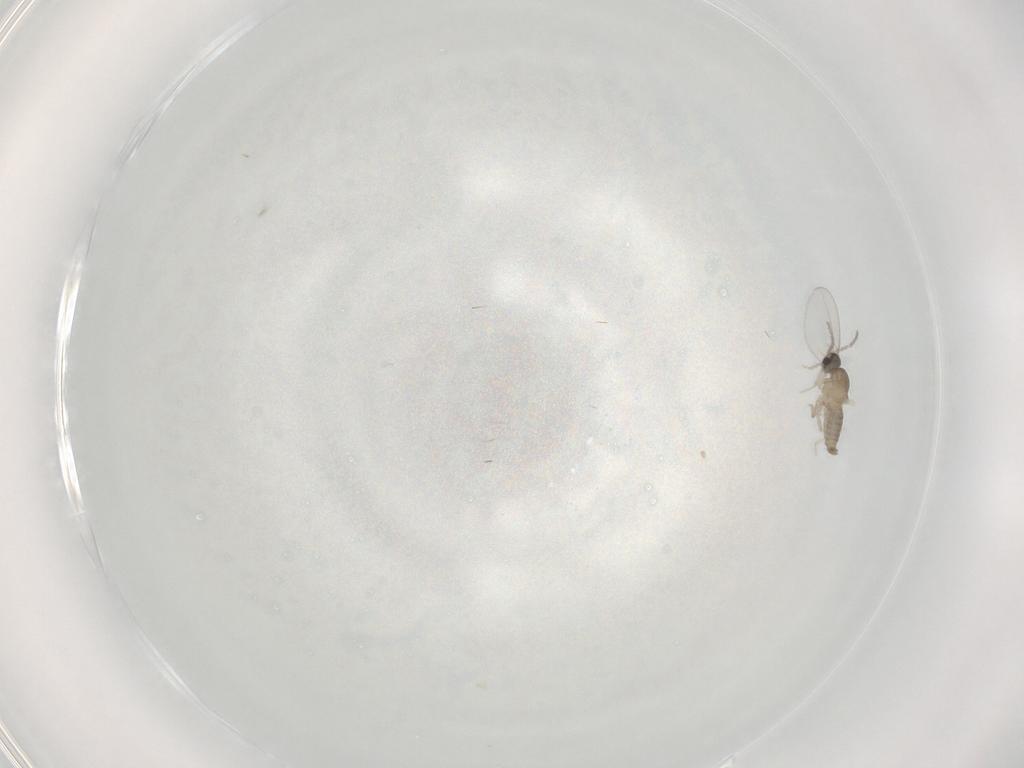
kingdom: Animalia
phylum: Arthropoda
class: Insecta
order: Diptera
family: Cecidomyiidae
